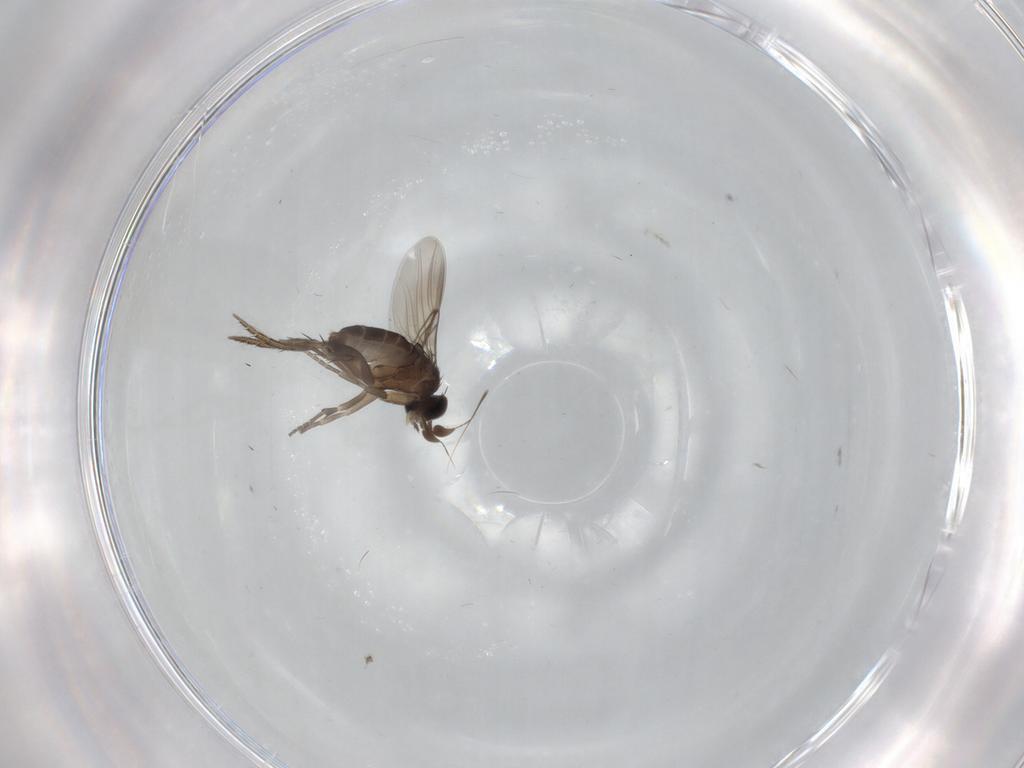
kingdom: Animalia
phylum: Arthropoda
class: Insecta
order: Diptera
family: Phoridae
